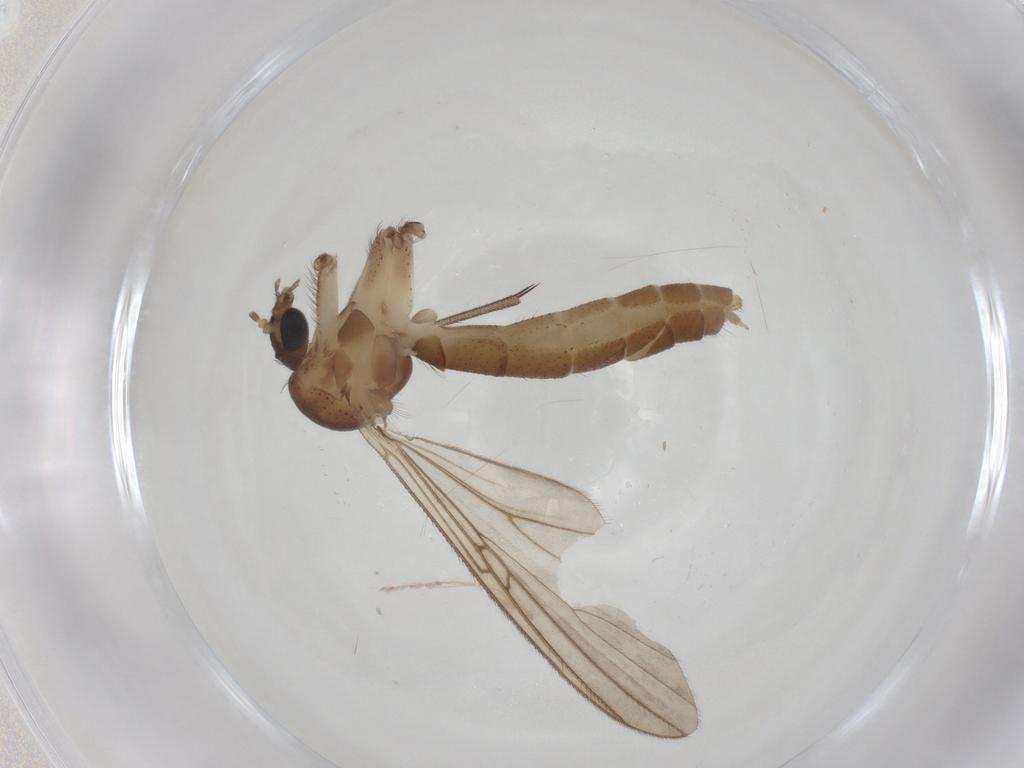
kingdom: Animalia
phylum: Arthropoda
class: Insecta
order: Diptera
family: Mycetophilidae
